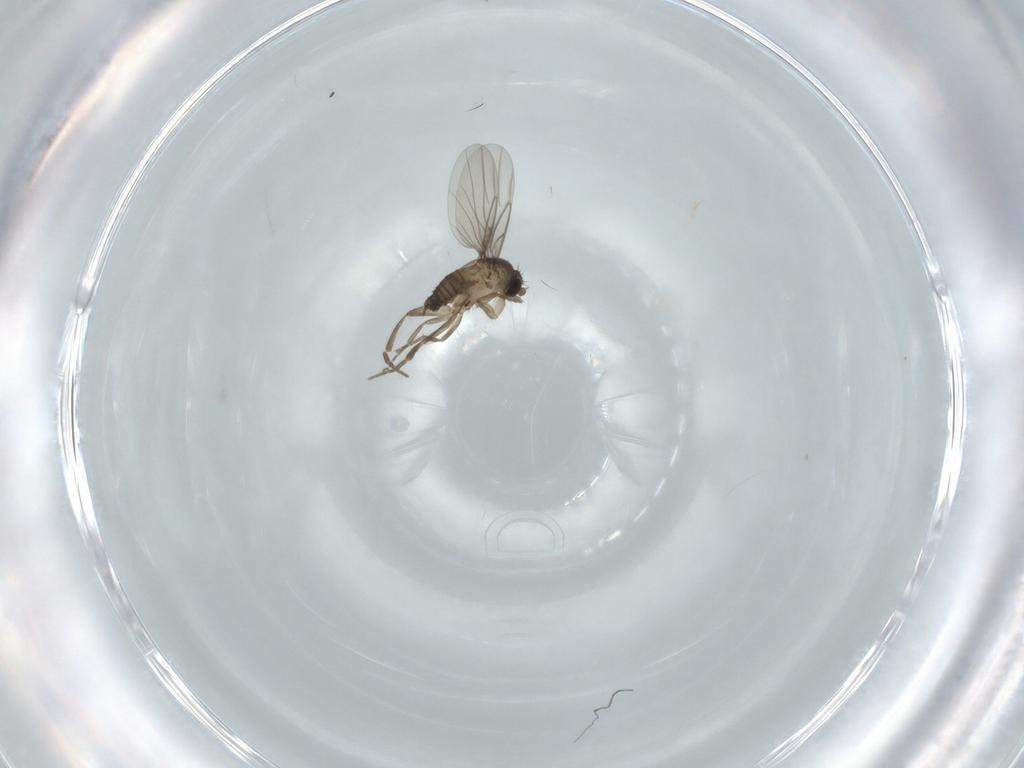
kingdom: Animalia
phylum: Arthropoda
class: Insecta
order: Diptera
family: Phoridae
